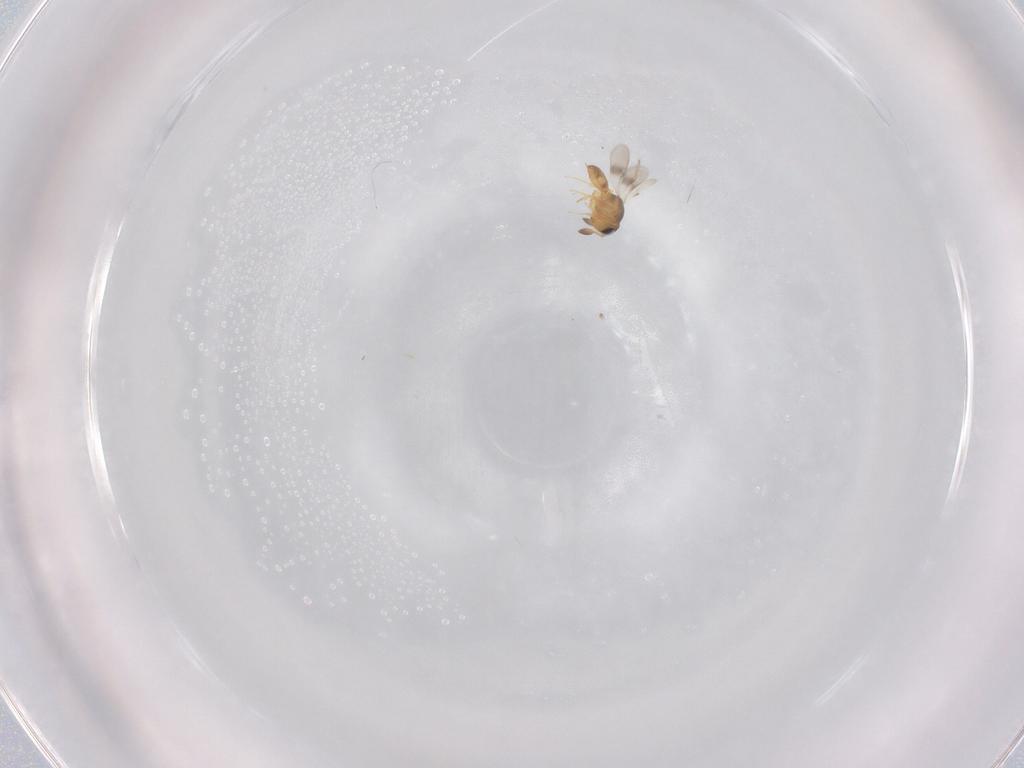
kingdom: Animalia
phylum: Arthropoda
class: Insecta
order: Hymenoptera
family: Scelionidae
